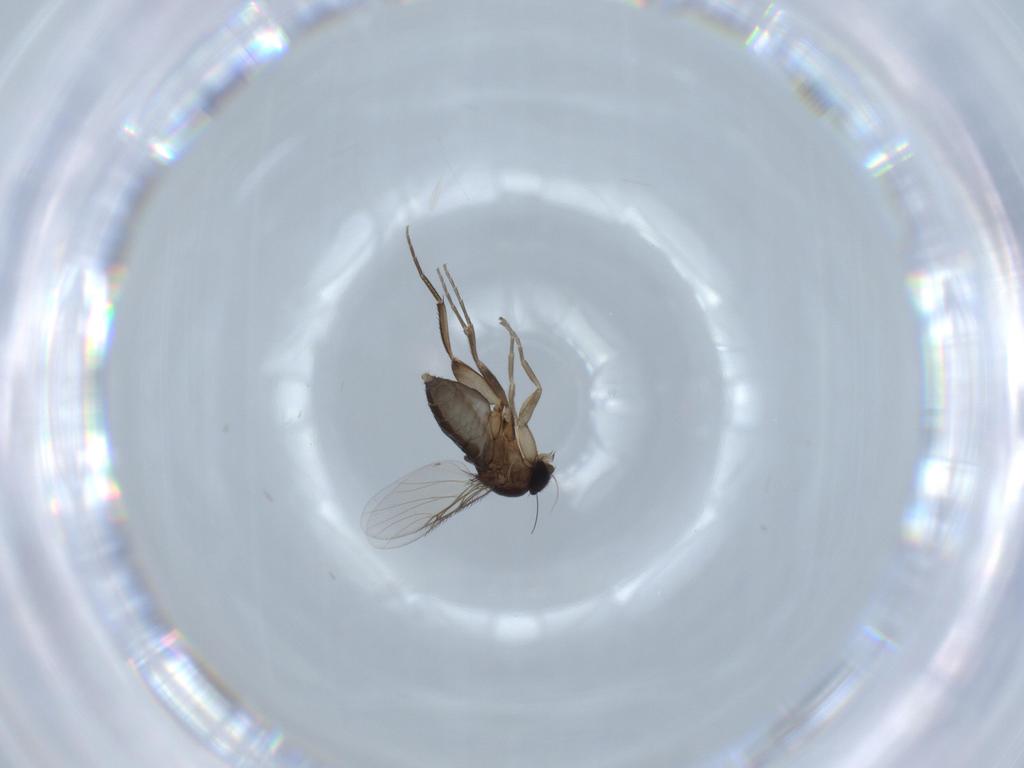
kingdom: Animalia
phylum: Arthropoda
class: Insecta
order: Diptera
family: Phoridae
